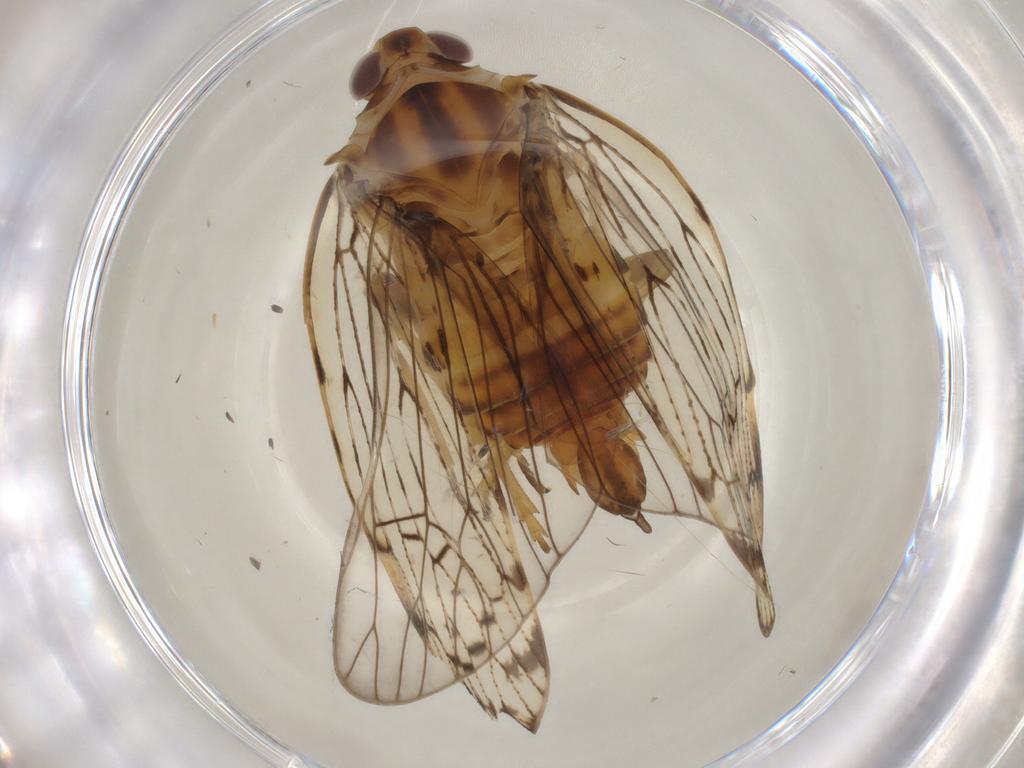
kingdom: Animalia
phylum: Arthropoda
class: Insecta
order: Hemiptera
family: Cixiidae
